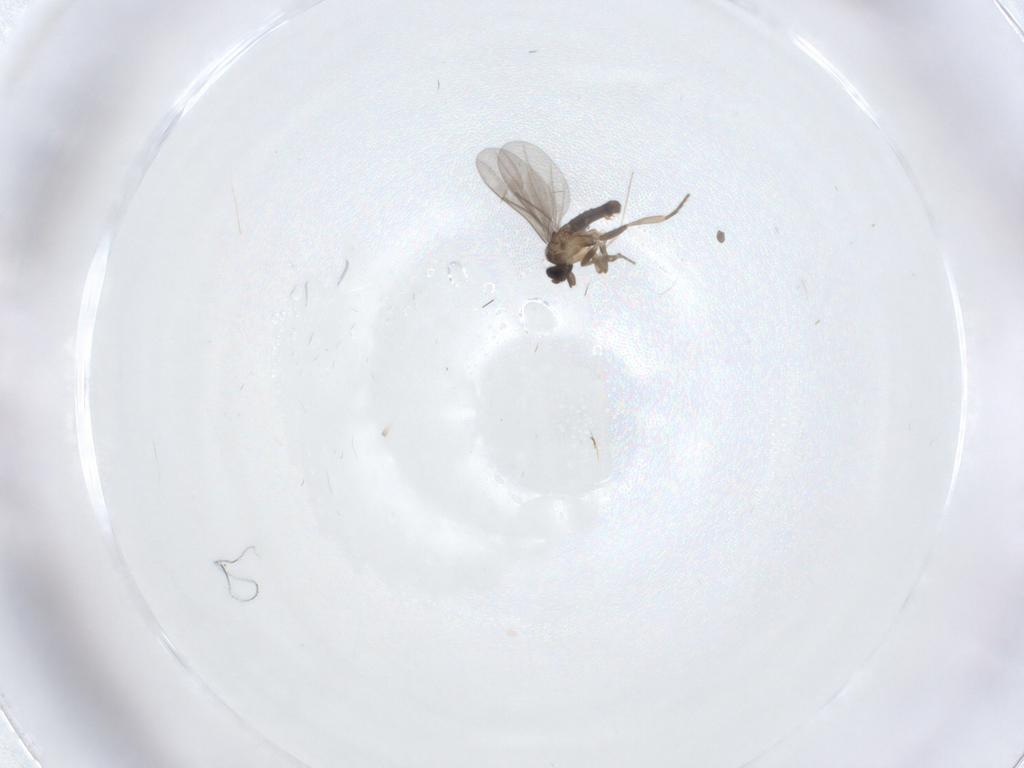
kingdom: Animalia
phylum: Arthropoda
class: Insecta
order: Diptera
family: Cecidomyiidae
